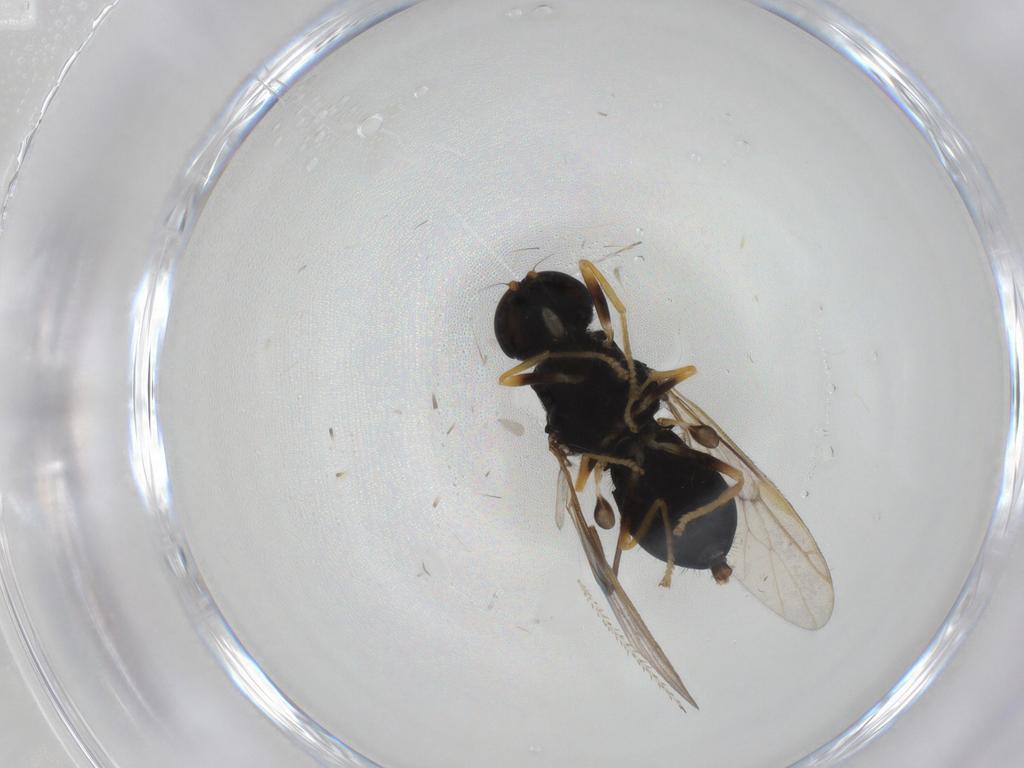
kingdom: Animalia
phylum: Arthropoda
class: Insecta
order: Diptera
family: Stratiomyidae
